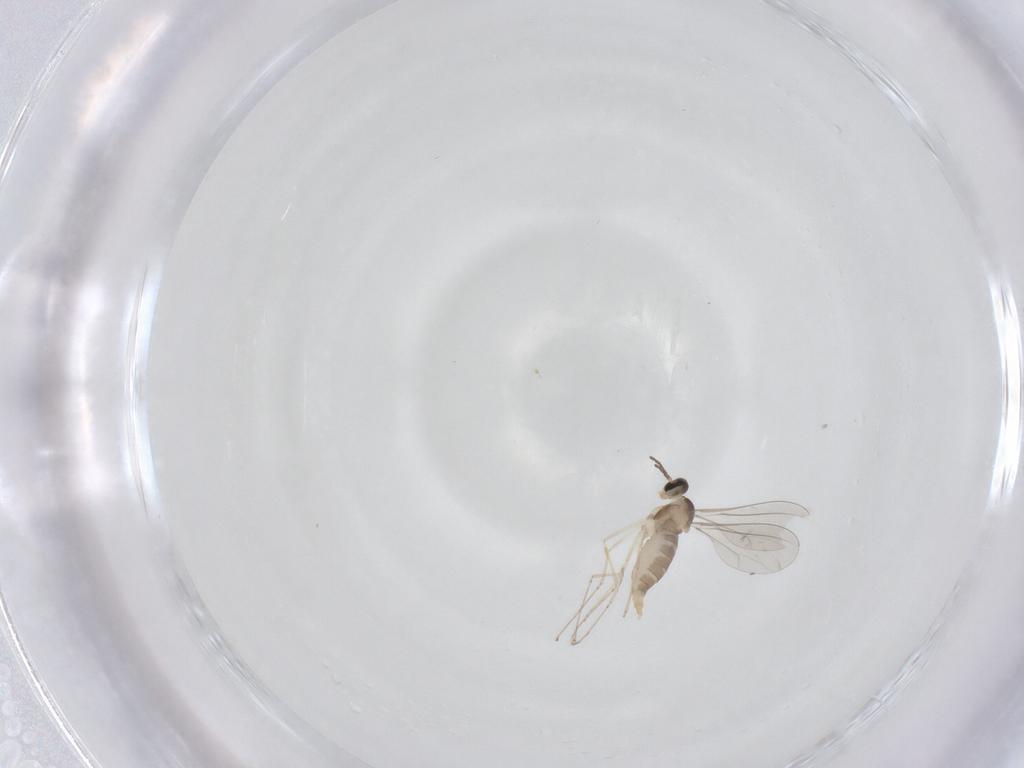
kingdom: Animalia
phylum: Arthropoda
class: Insecta
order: Diptera
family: Cecidomyiidae
